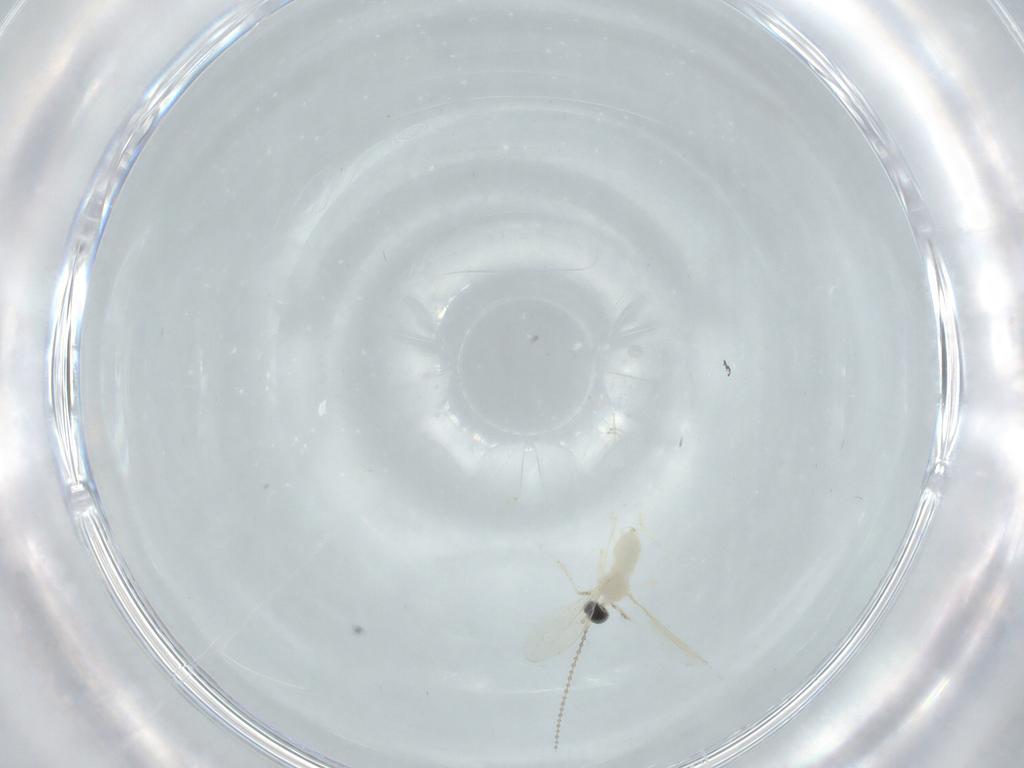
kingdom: Animalia
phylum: Arthropoda
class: Insecta
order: Diptera
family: Cecidomyiidae
